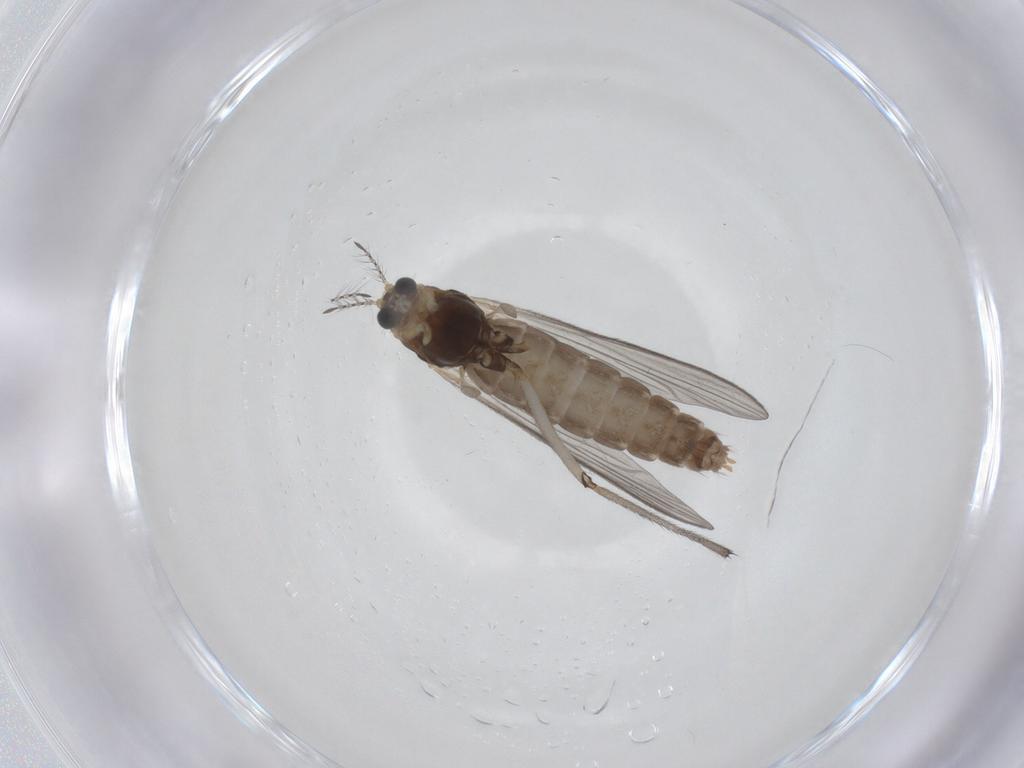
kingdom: Animalia
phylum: Arthropoda
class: Insecta
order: Diptera
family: Chironomidae
